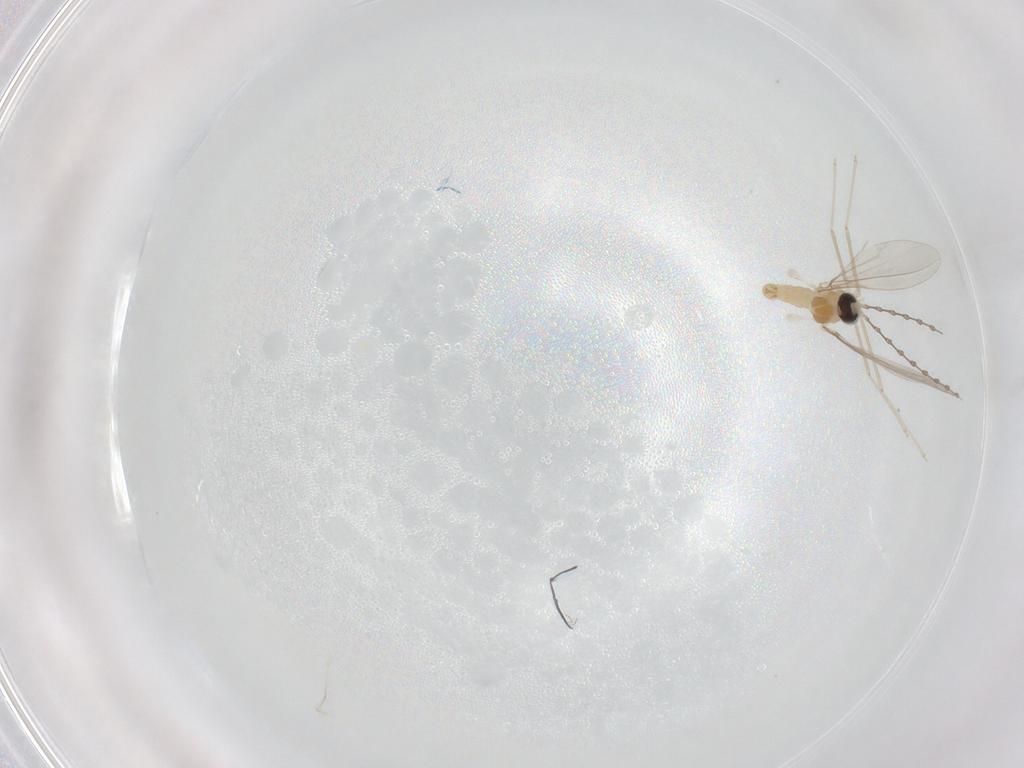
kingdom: Animalia
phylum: Arthropoda
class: Insecta
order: Diptera
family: Cecidomyiidae
